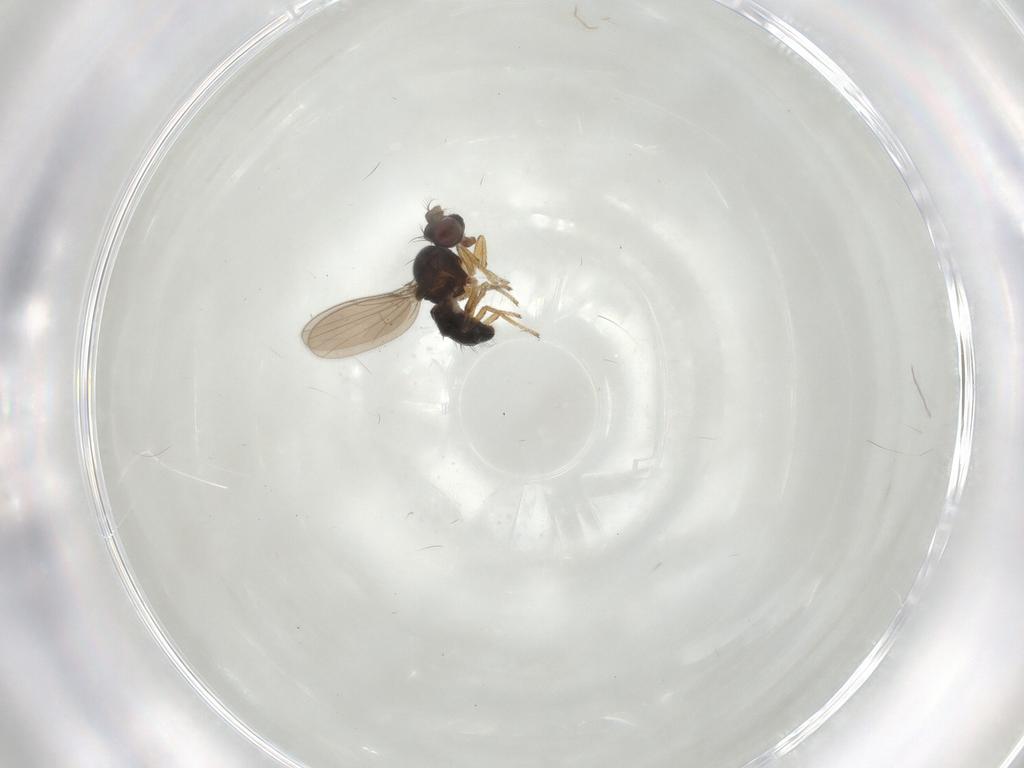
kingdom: Animalia
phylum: Arthropoda
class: Insecta
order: Diptera
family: Ephydridae
